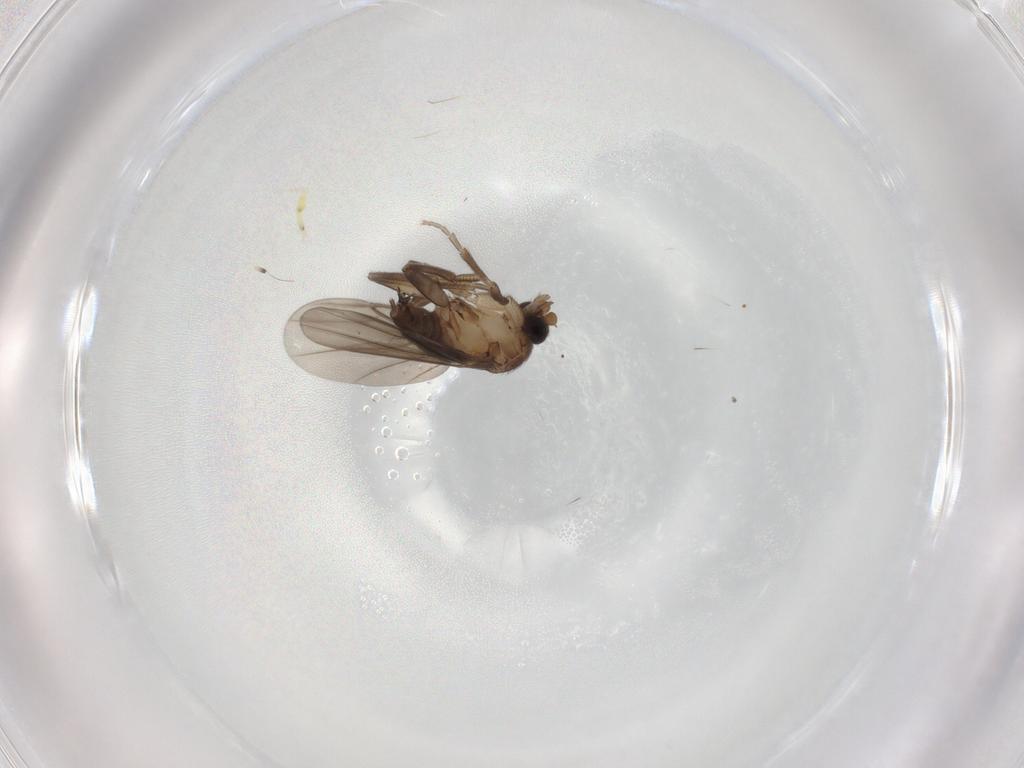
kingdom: Animalia
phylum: Arthropoda
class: Insecta
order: Diptera
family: Phoridae
